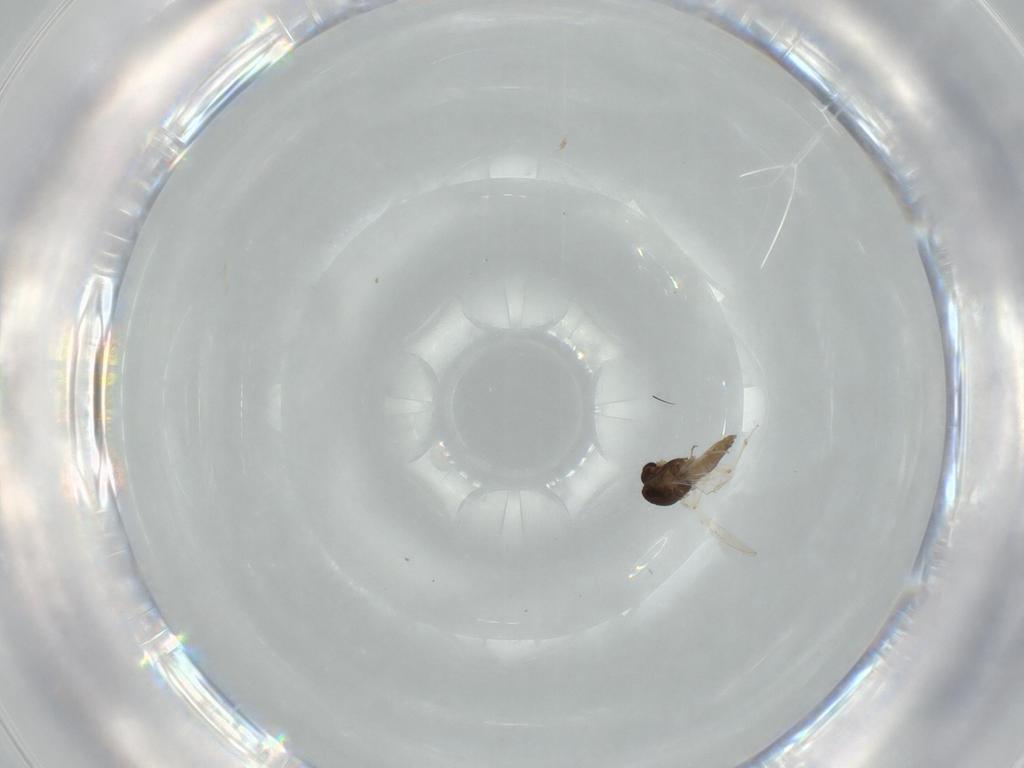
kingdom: Animalia
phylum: Arthropoda
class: Insecta
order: Diptera
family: Chironomidae
